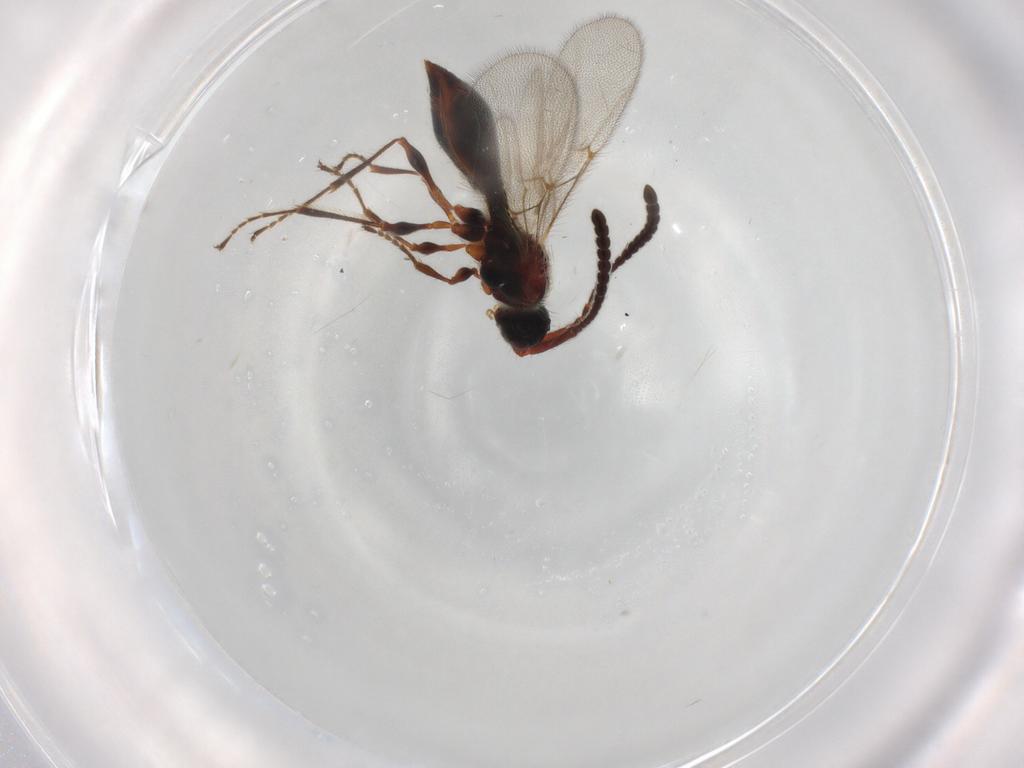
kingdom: Animalia
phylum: Arthropoda
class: Insecta
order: Hymenoptera
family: Diapriidae
